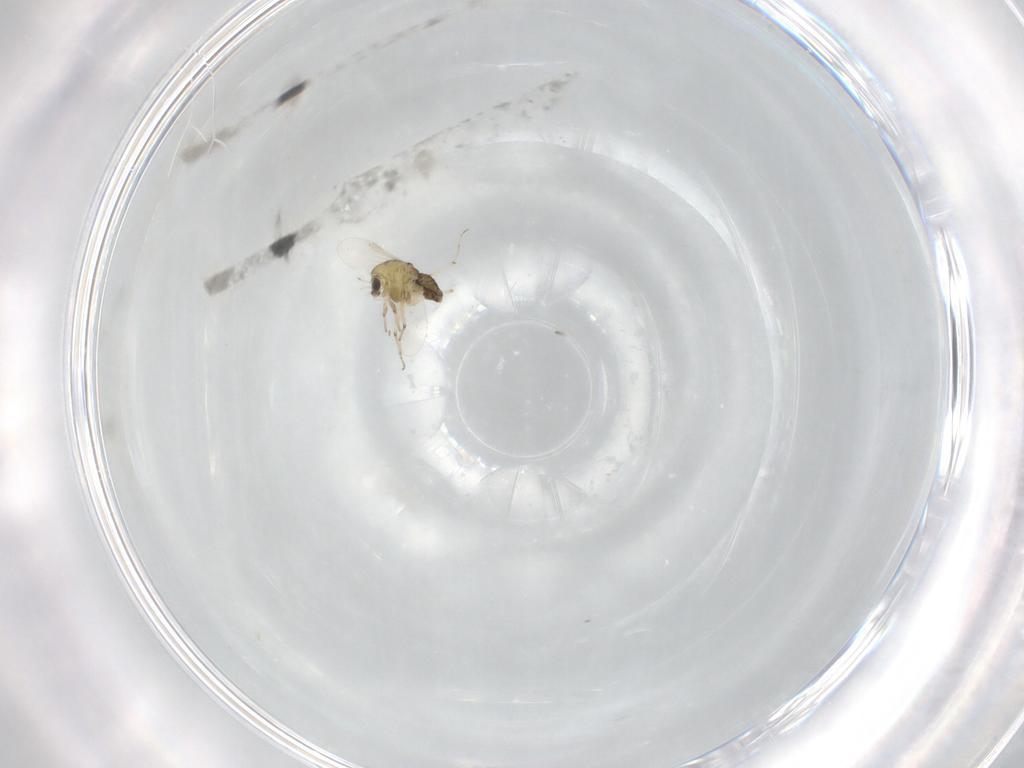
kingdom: Animalia
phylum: Arthropoda
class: Insecta
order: Diptera
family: Chironomidae
